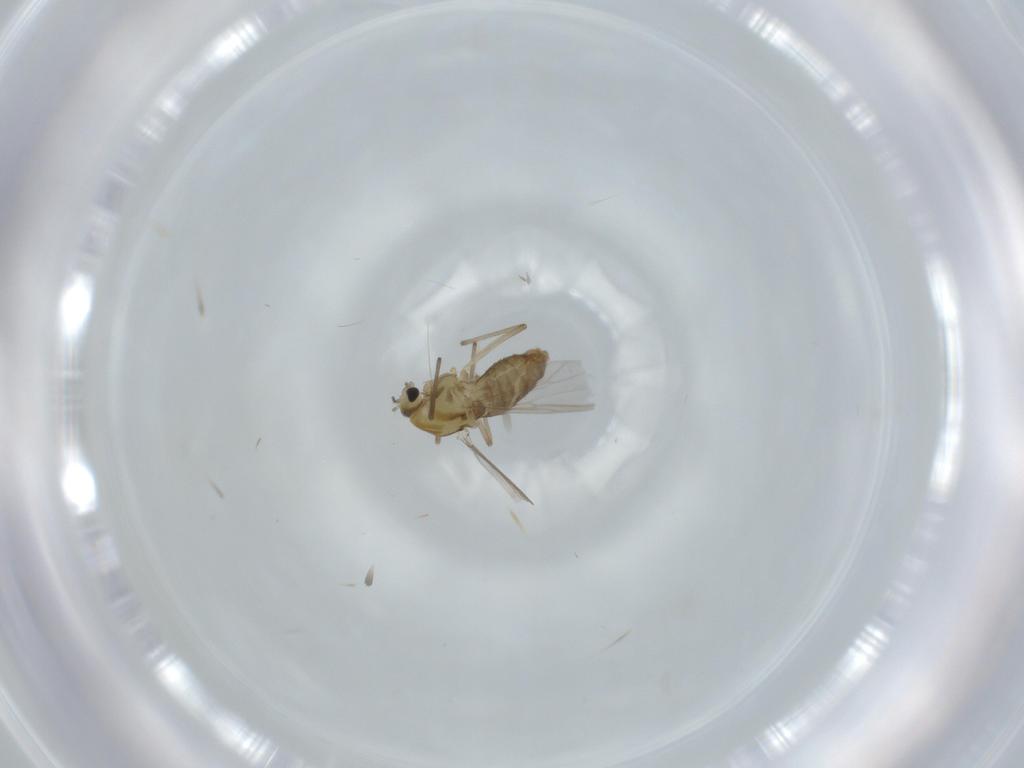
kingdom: Animalia
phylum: Arthropoda
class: Insecta
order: Diptera
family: Chironomidae
